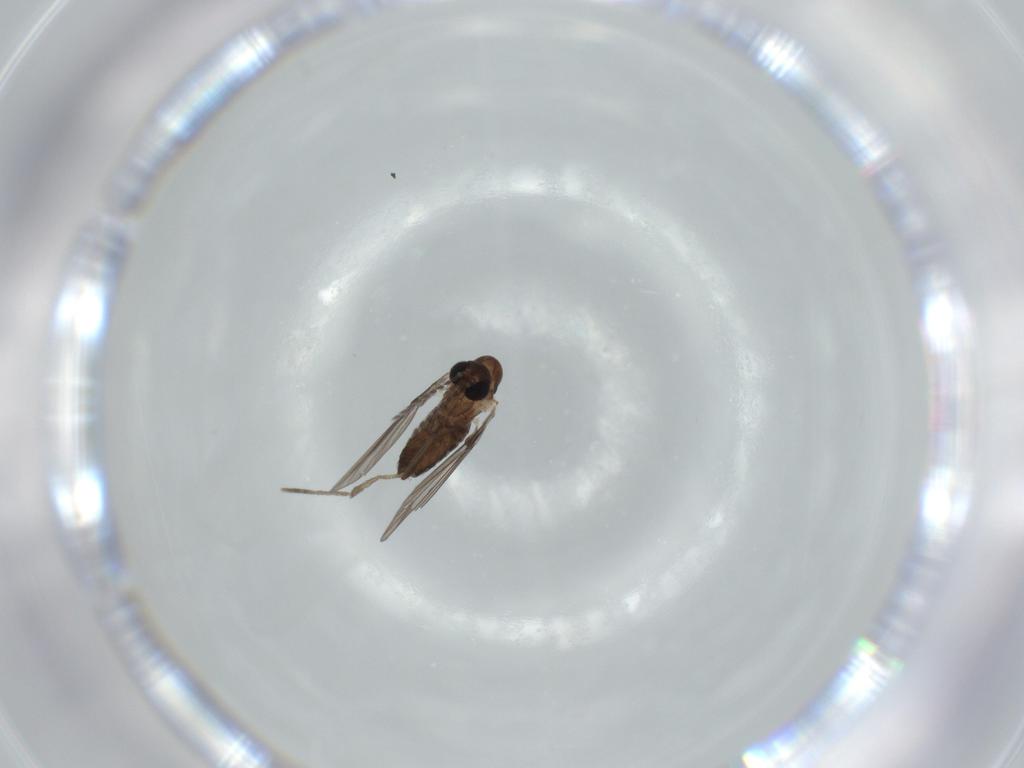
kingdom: Animalia
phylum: Arthropoda
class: Insecta
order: Diptera
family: Psychodidae
